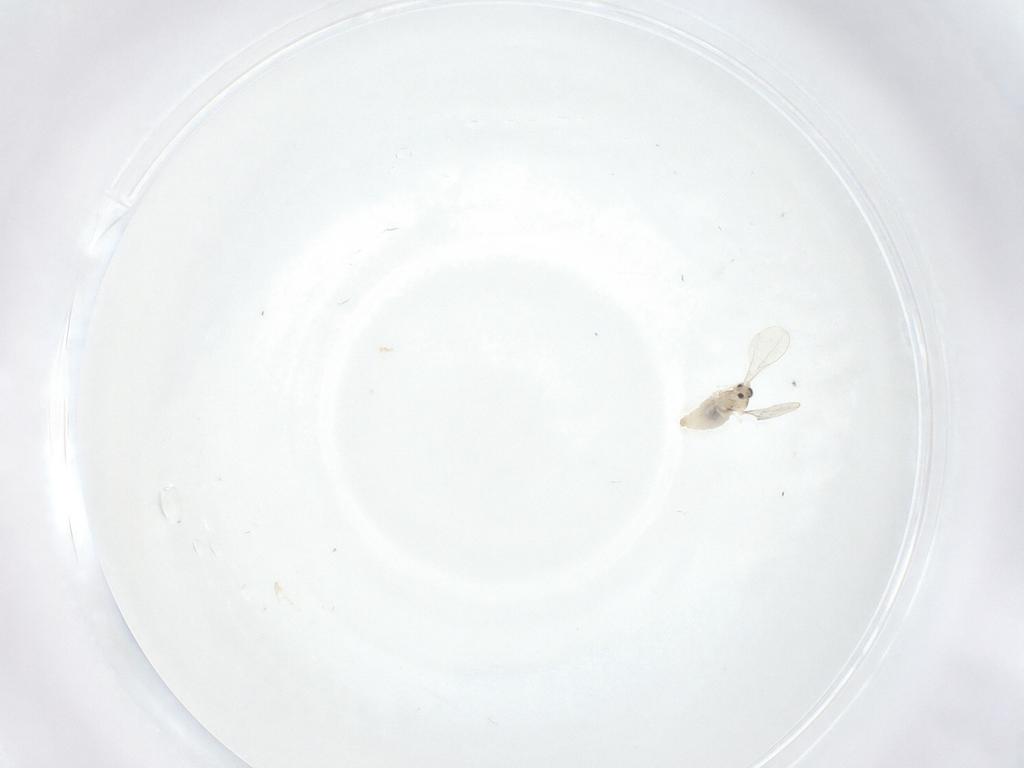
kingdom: Animalia
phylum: Arthropoda
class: Insecta
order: Diptera
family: Cecidomyiidae
